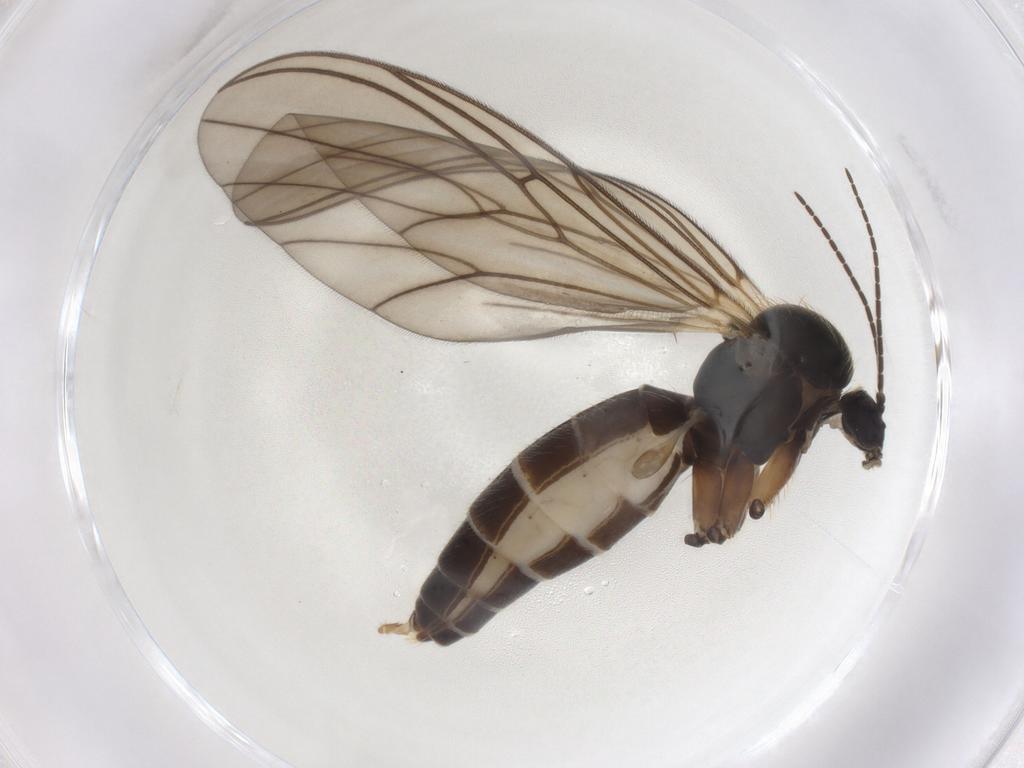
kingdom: Animalia
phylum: Arthropoda
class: Insecta
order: Diptera
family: Mycetophilidae
